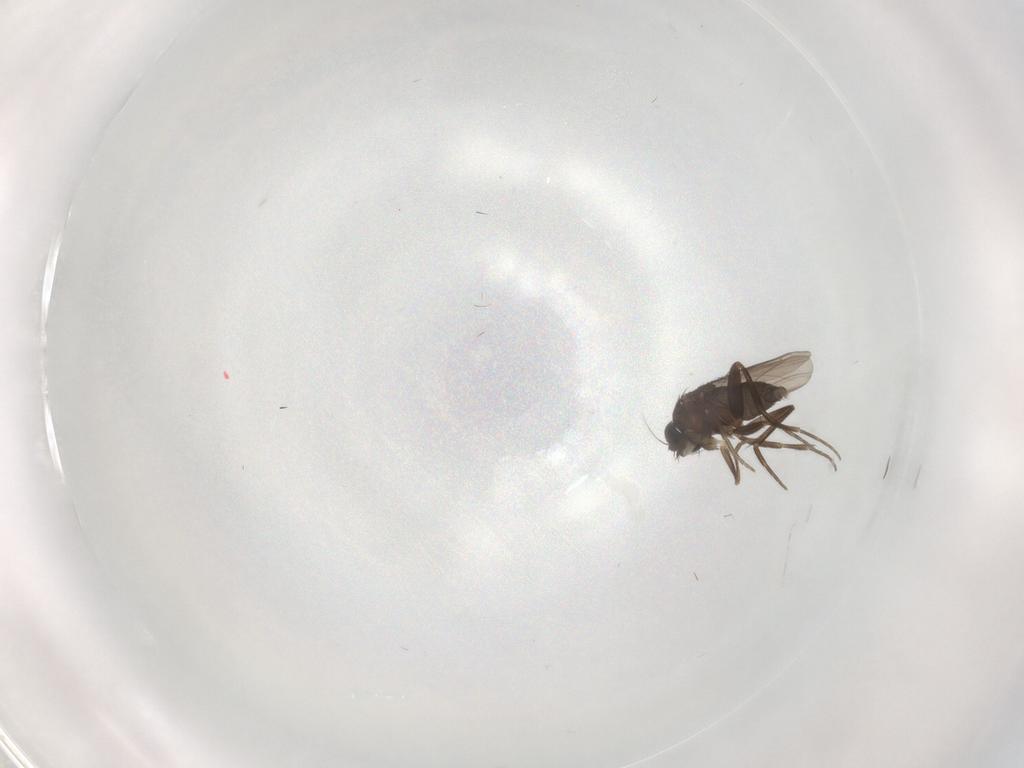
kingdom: Animalia
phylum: Arthropoda
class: Insecta
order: Diptera
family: Phoridae
